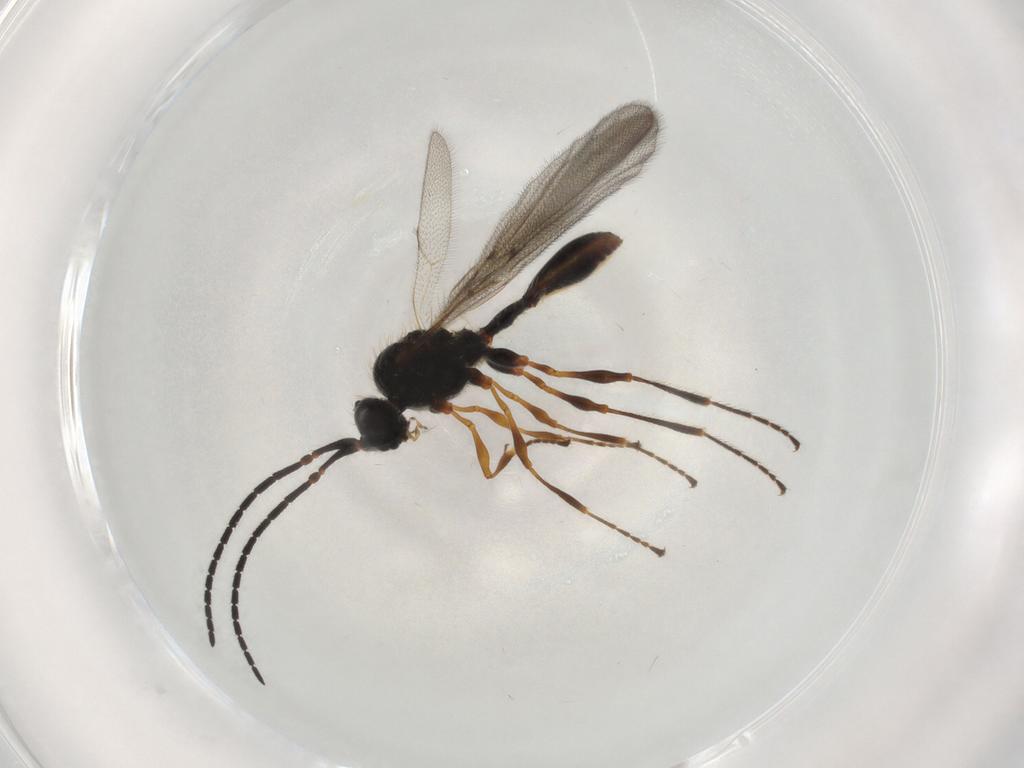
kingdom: Animalia
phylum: Arthropoda
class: Insecta
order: Hymenoptera
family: Diapriidae
